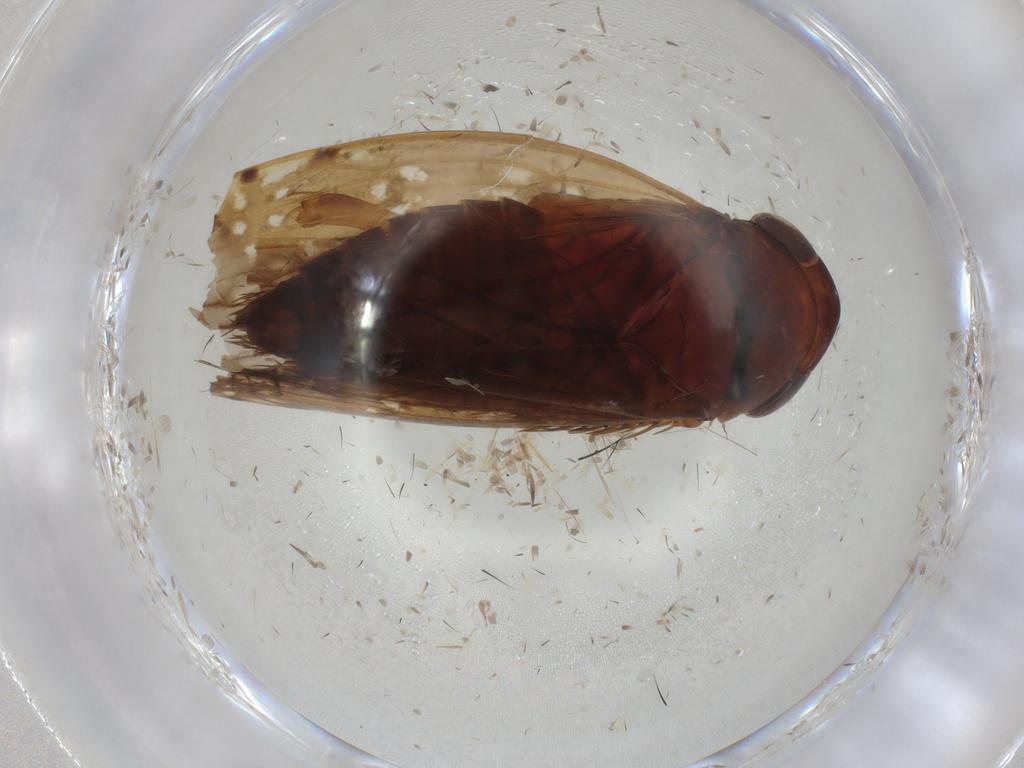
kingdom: Animalia
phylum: Arthropoda
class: Insecta
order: Hemiptera
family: Cicadellidae
